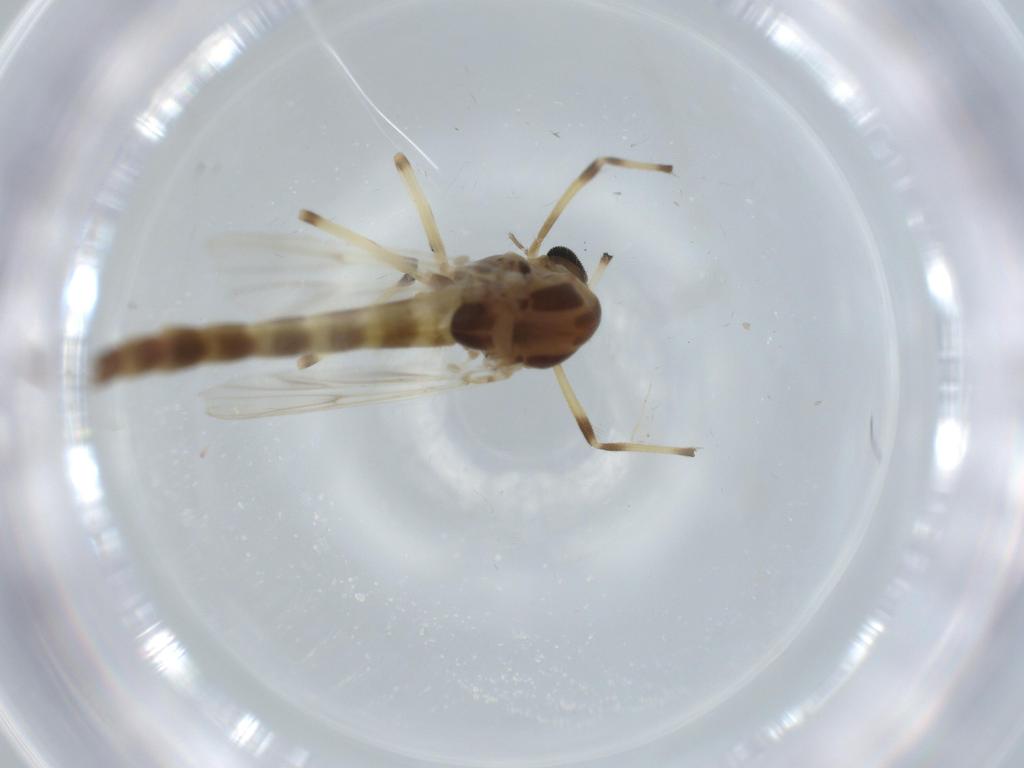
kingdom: Animalia
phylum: Arthropoda
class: Insecta
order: Diptera
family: Chironomidae
